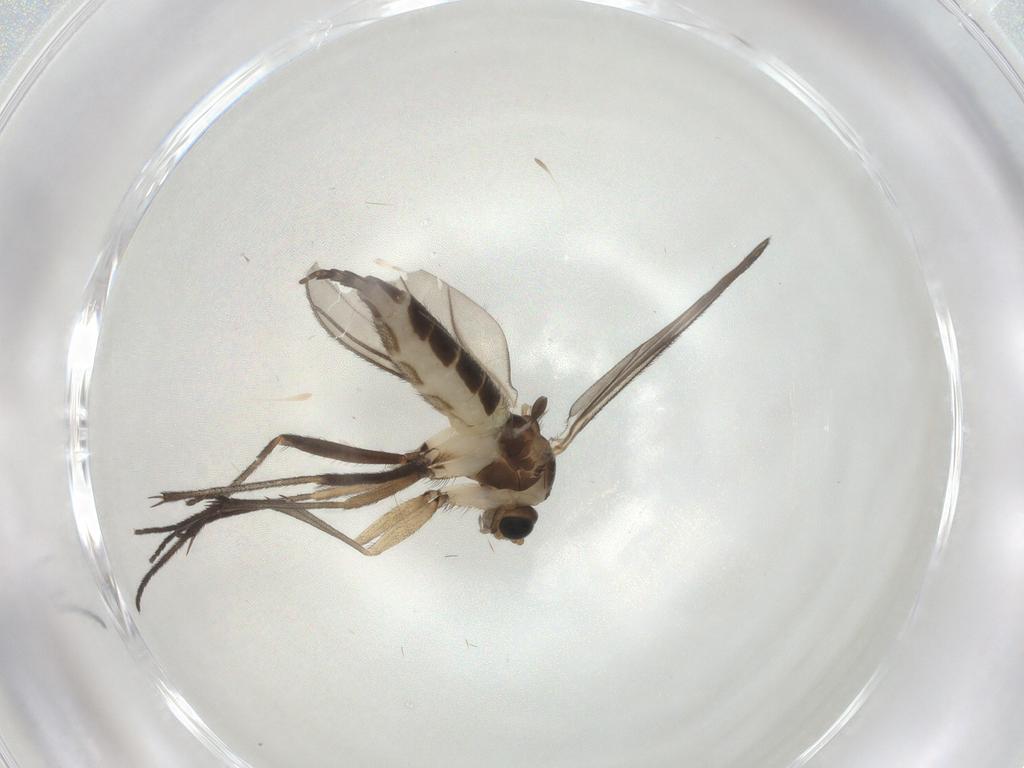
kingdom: Animalia
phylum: Arthropoda
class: Insecta
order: Diptera
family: Sciaridae
